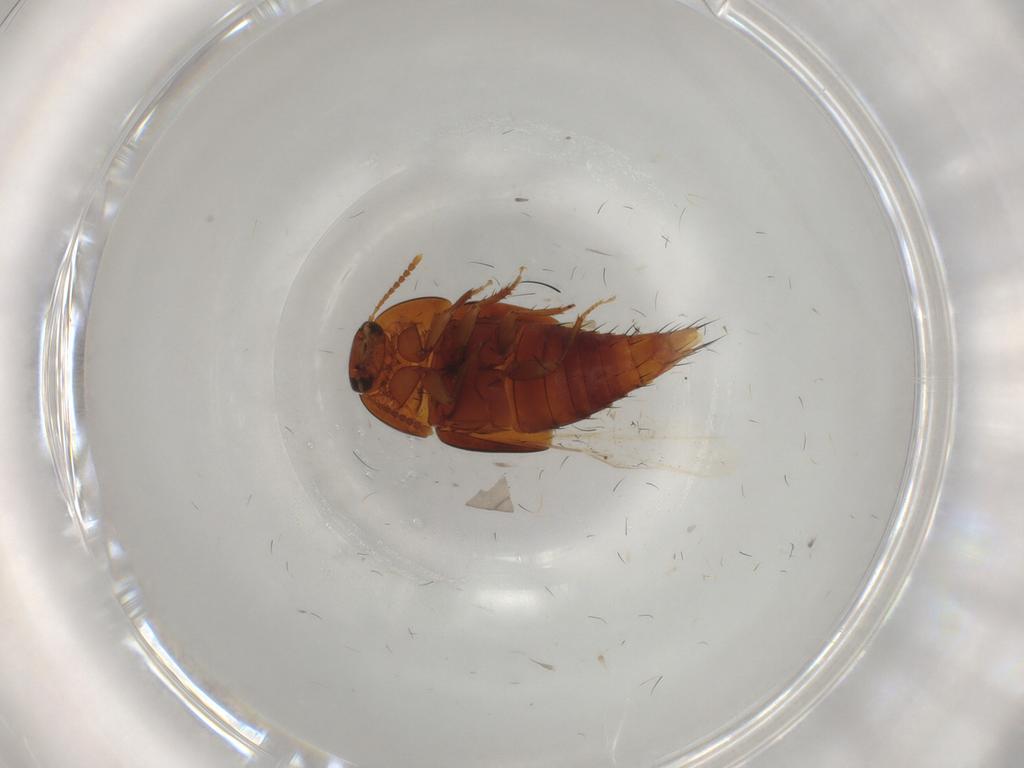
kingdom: Animalia
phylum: Arthropoda
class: Insecta
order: Coleoptera
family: Staphylinidae
